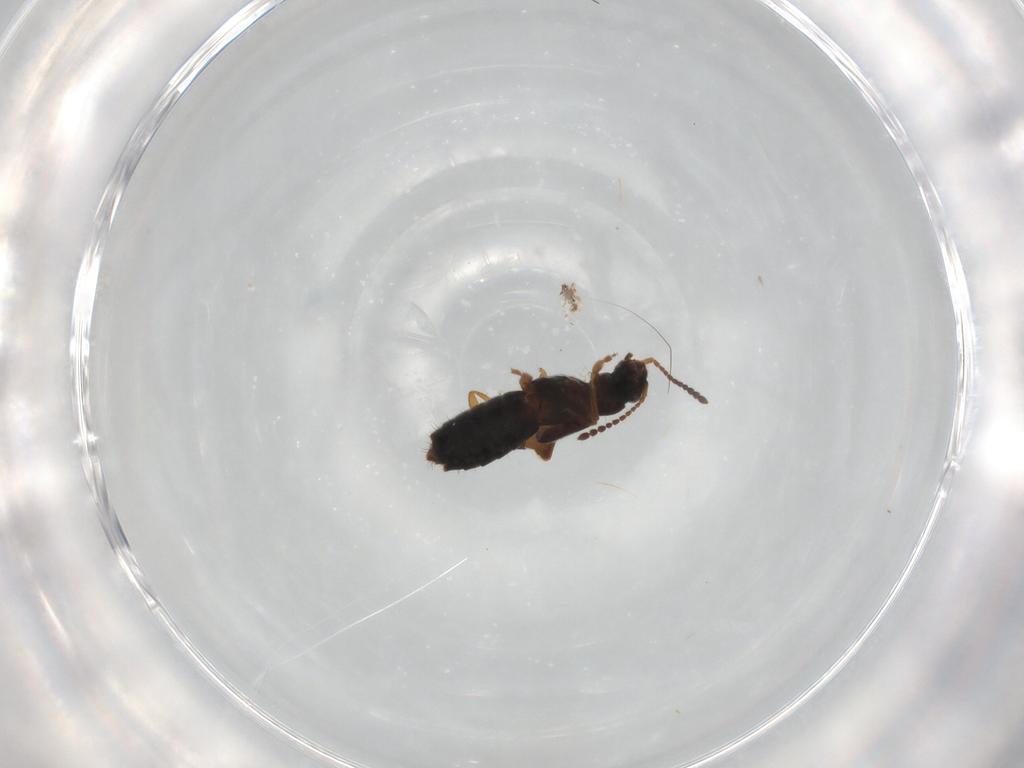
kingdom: Animalia
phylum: Arthropoda
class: Insecta
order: Coleoptera
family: Staphylinidae
